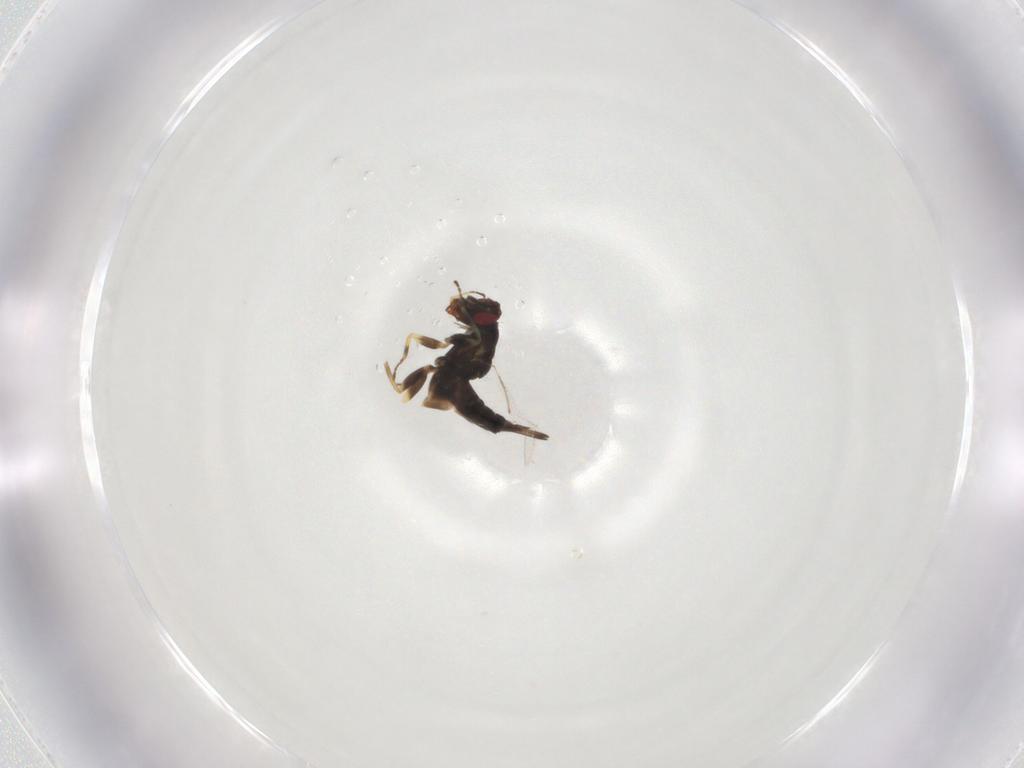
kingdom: Animalia
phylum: Arthropoda
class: Insecta
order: Hymenoptera
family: Eulophidae
